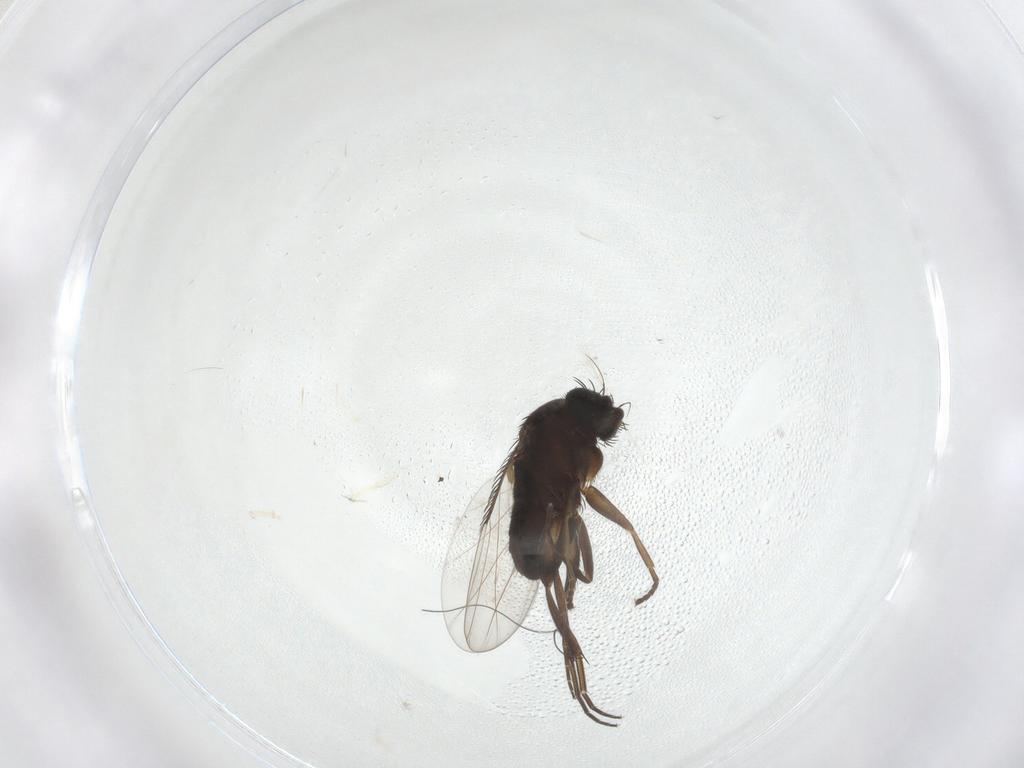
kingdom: Animalia
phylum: Arthropoda
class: Insecta
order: Diptera
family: Phoridae
